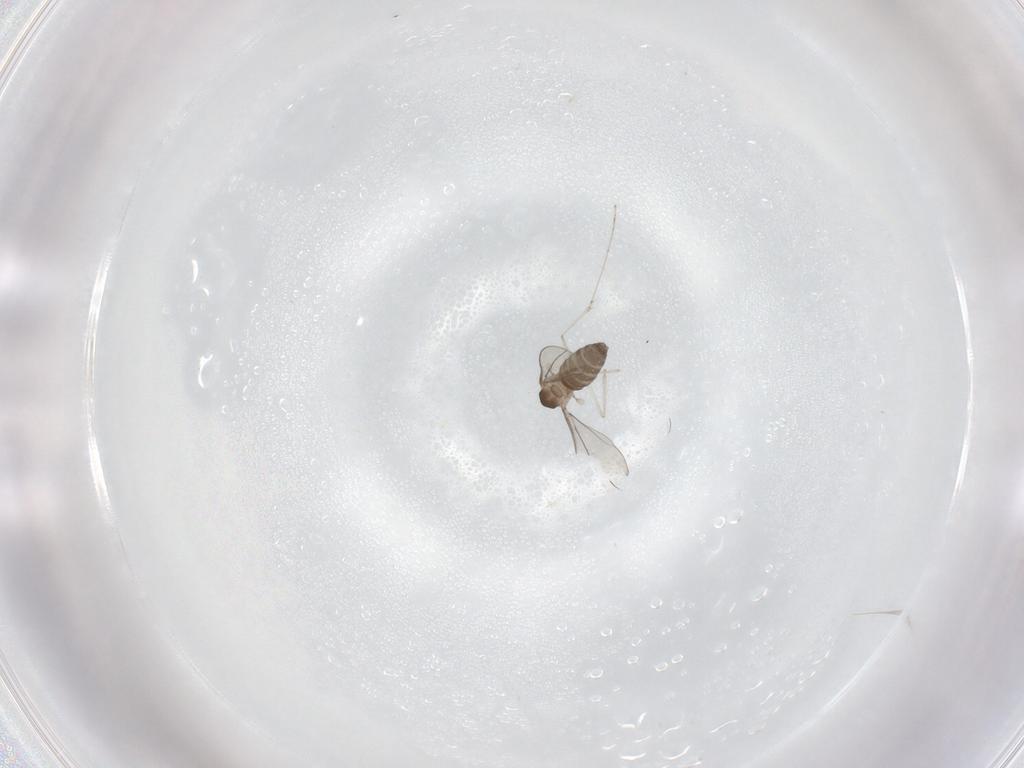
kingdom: Animalia
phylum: Arthropoda
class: Insecta
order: Diptera
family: Cecidomyiidae
